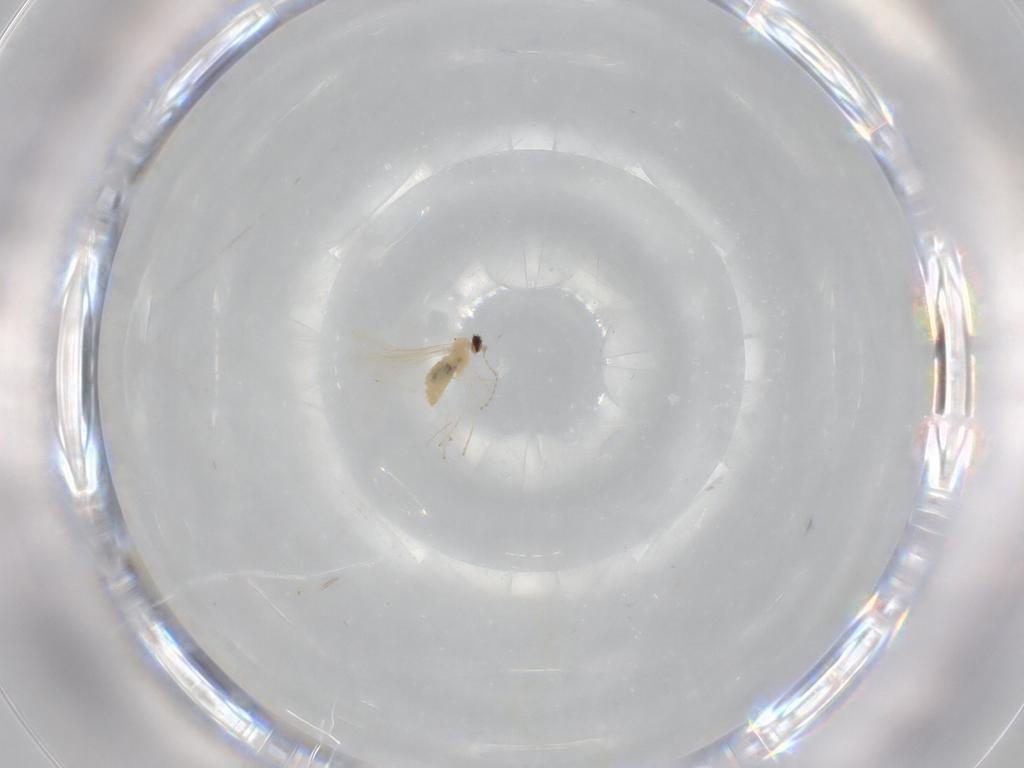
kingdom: Animalia
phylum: Arthropoda
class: Insecta
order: Diptera
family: Cecidomyiidae
